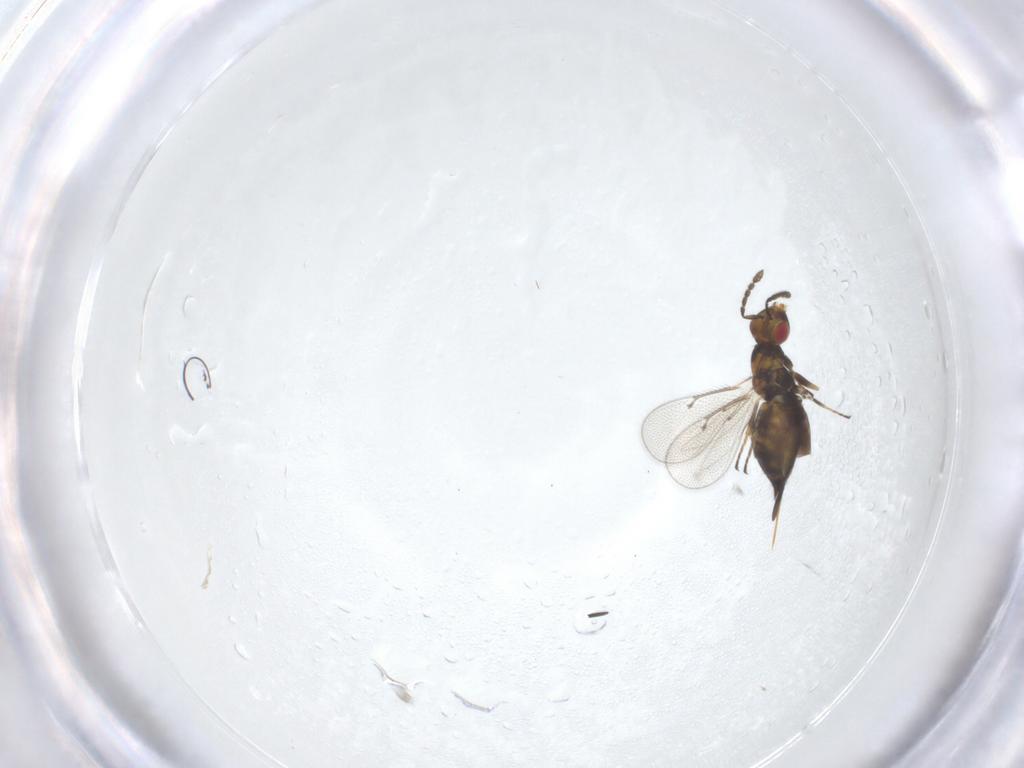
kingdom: Animalia
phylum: Arthropoda
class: Insecta
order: Hymenoptera
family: Eulophidae
